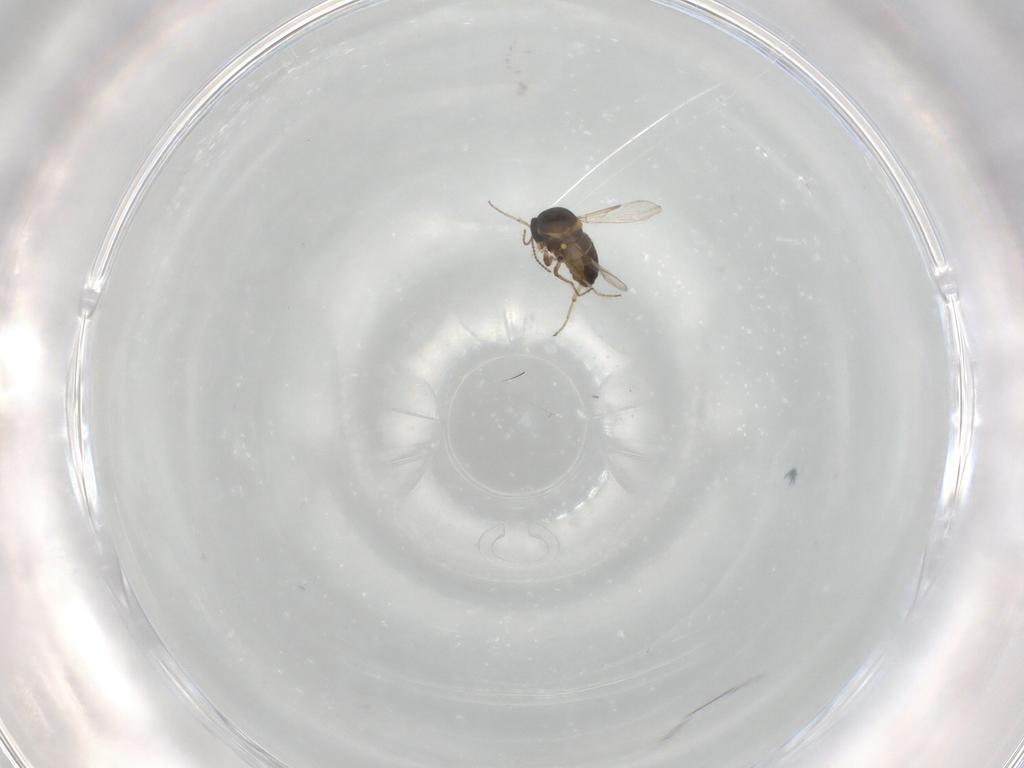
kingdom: Animalia
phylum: Arthropoda
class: Insecta
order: Diptera
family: Ceratopogonidae
